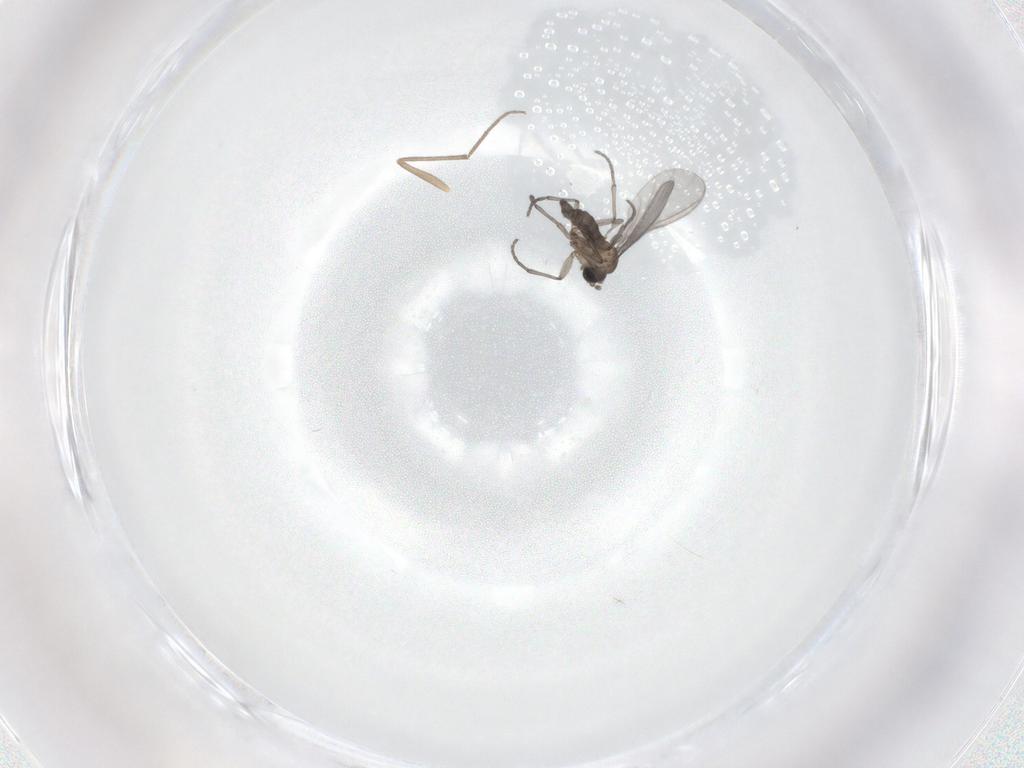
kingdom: Animalia
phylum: Arthropoda
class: Insecta
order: Diptera
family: Sciaridae
